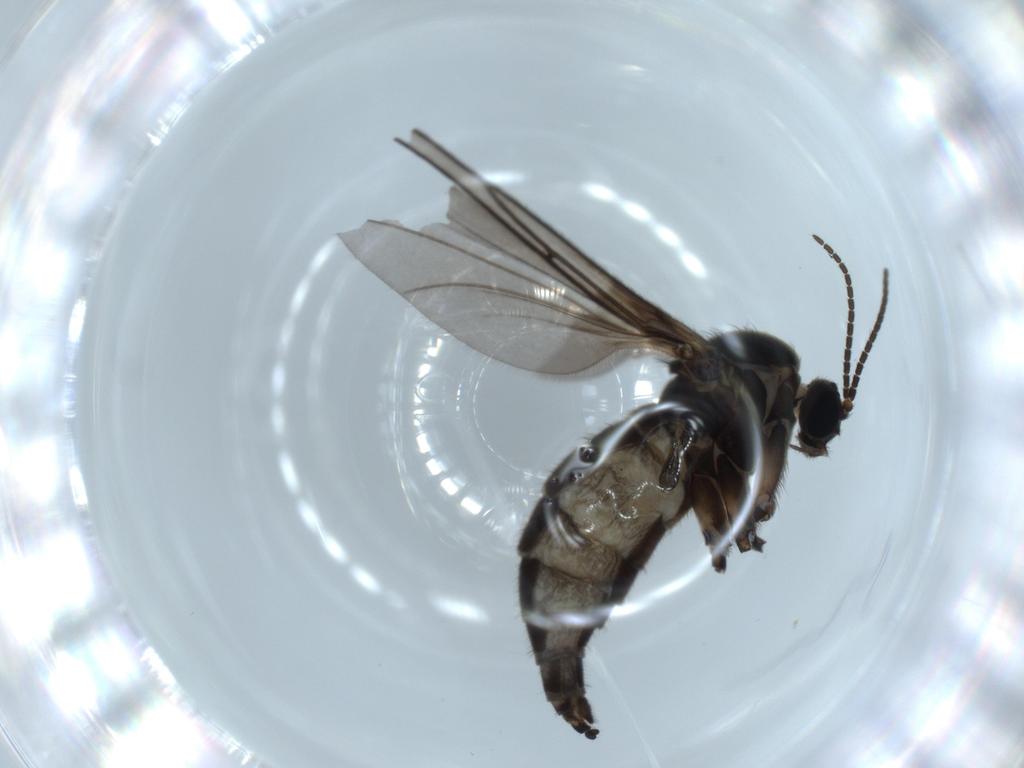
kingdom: Animalia
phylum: Arthropoda
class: Insecta
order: Diptera
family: Sciaridae
